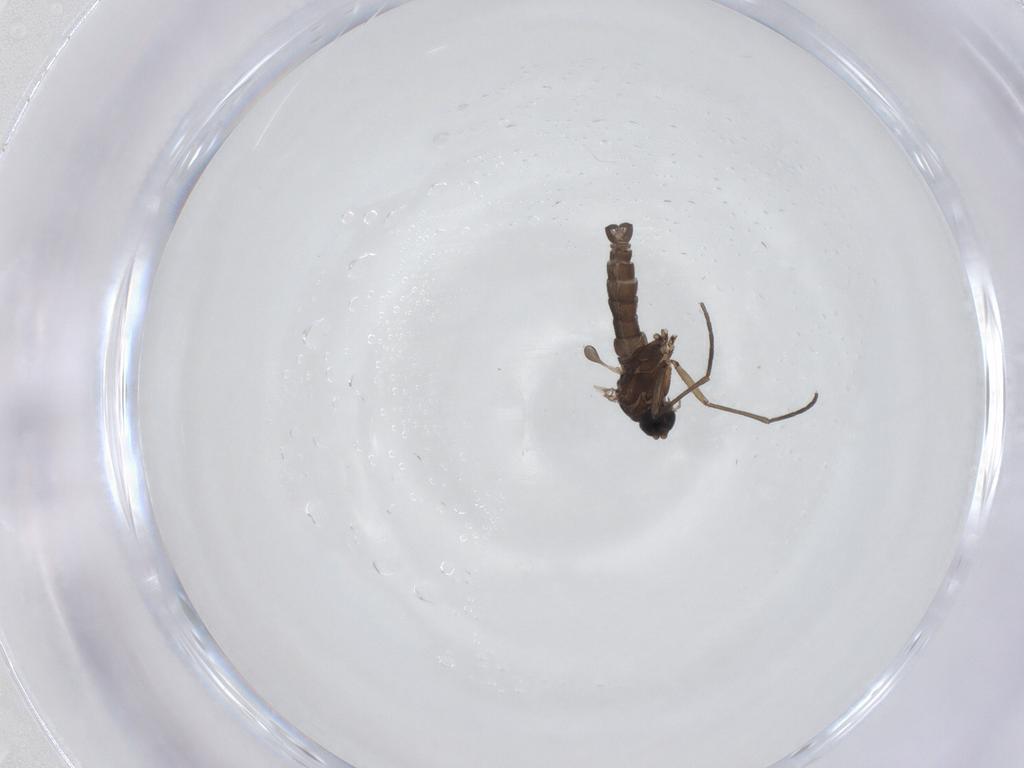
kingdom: Animalia
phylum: Arthropoda
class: Insecta
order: Diptera
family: Sciaridae
